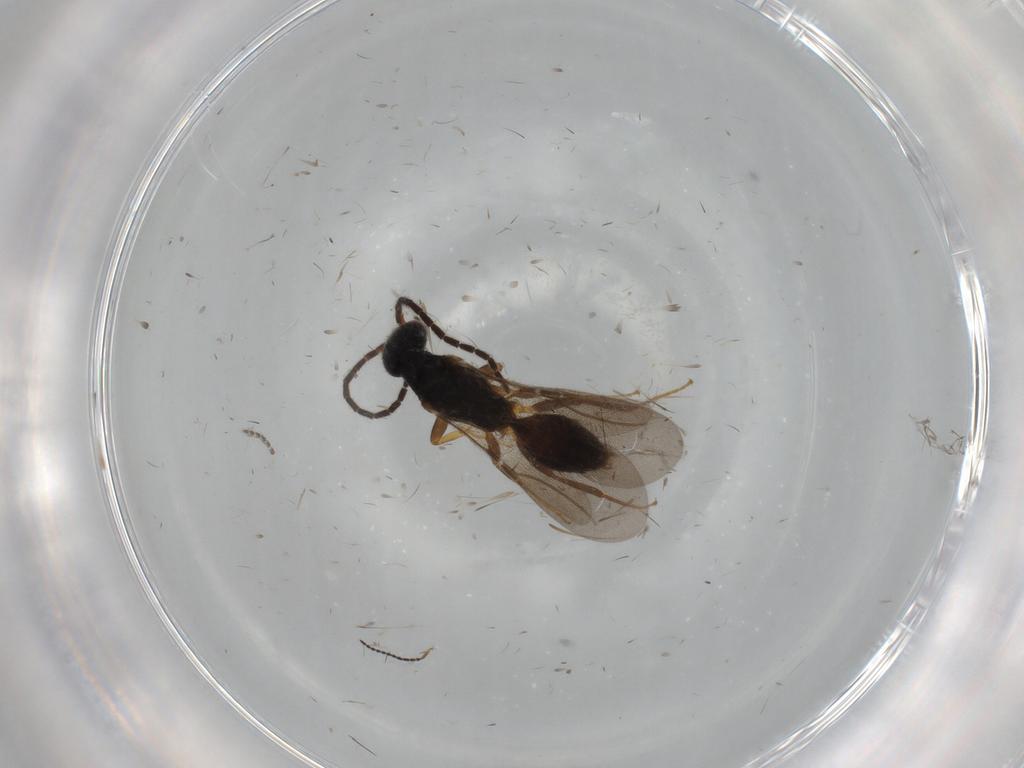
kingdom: Animalia
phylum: Arthropoda
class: Insecta
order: Hymenoptera
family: Bethylidae
